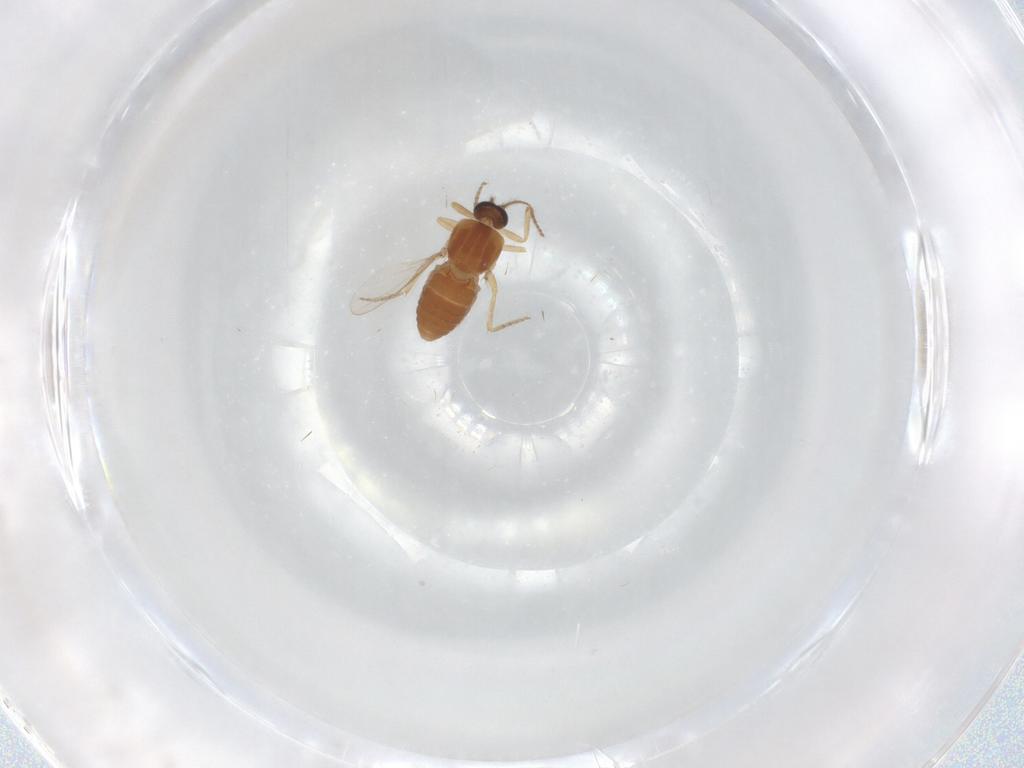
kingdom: Animalia
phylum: Arthropoda
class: Insecta
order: Diptera
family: Ceratopogonidae
